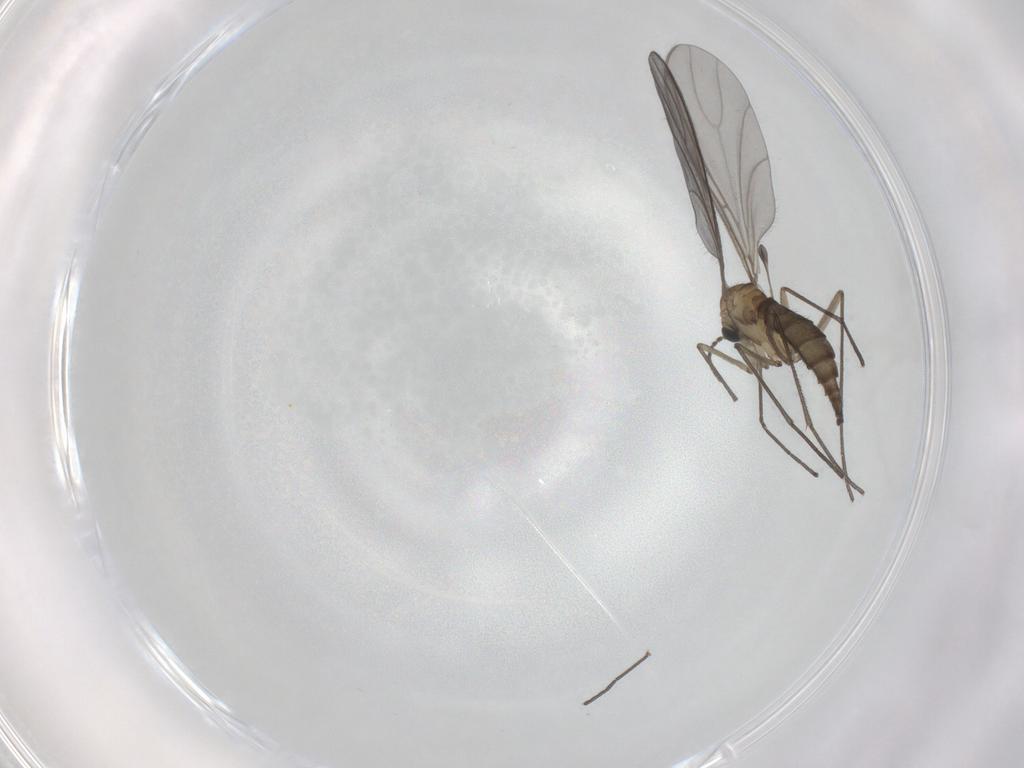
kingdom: Animalia
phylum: Arthropoda
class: Insecta
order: Diptera
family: Sciaridae
